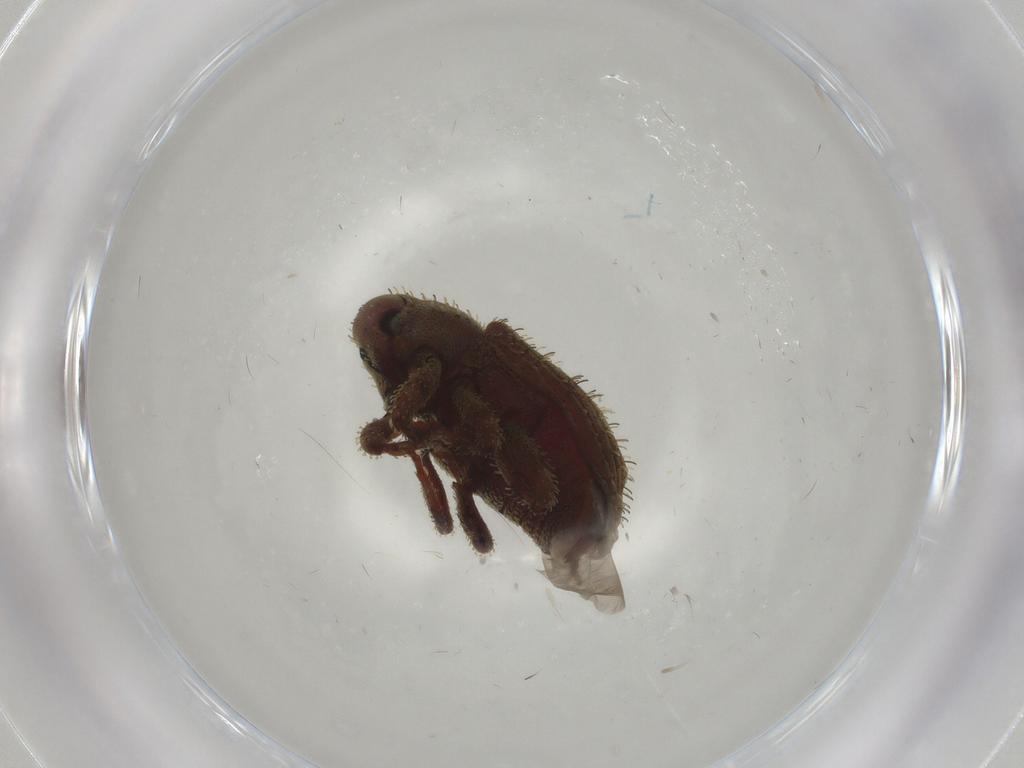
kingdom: Animalia
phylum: Arthropoda
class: Insecta
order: Coleoptera
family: Curculionidae
